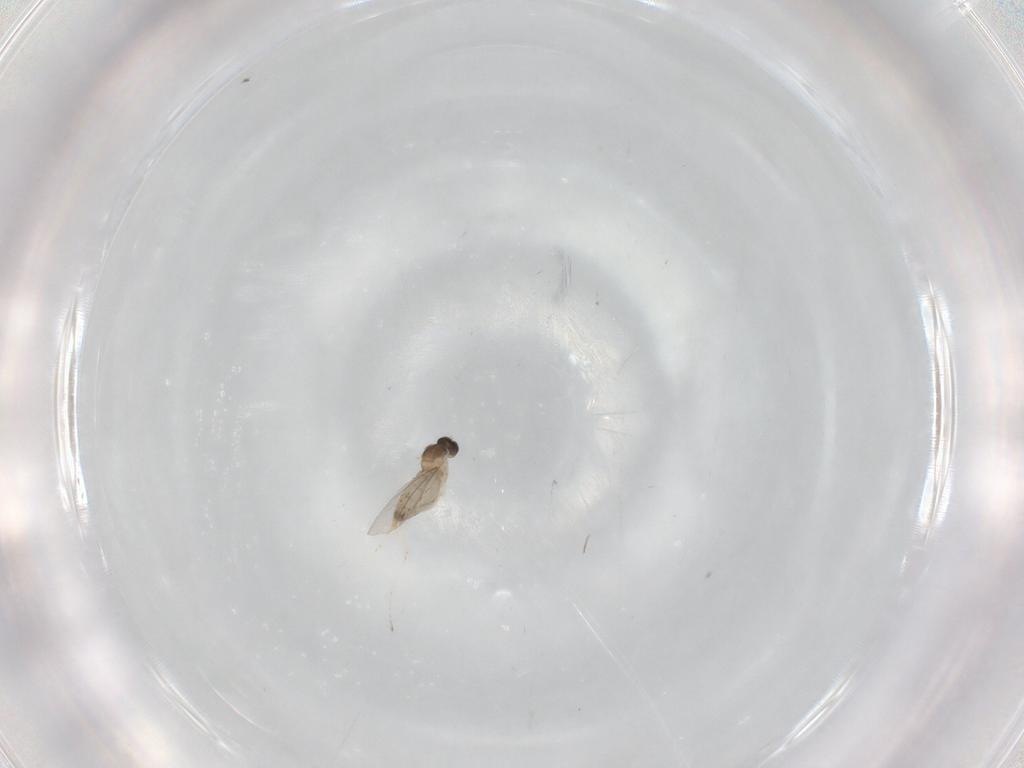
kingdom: Animalia
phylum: Arthropoda
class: Insecta
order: Diptera
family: Cecidomyiidae
